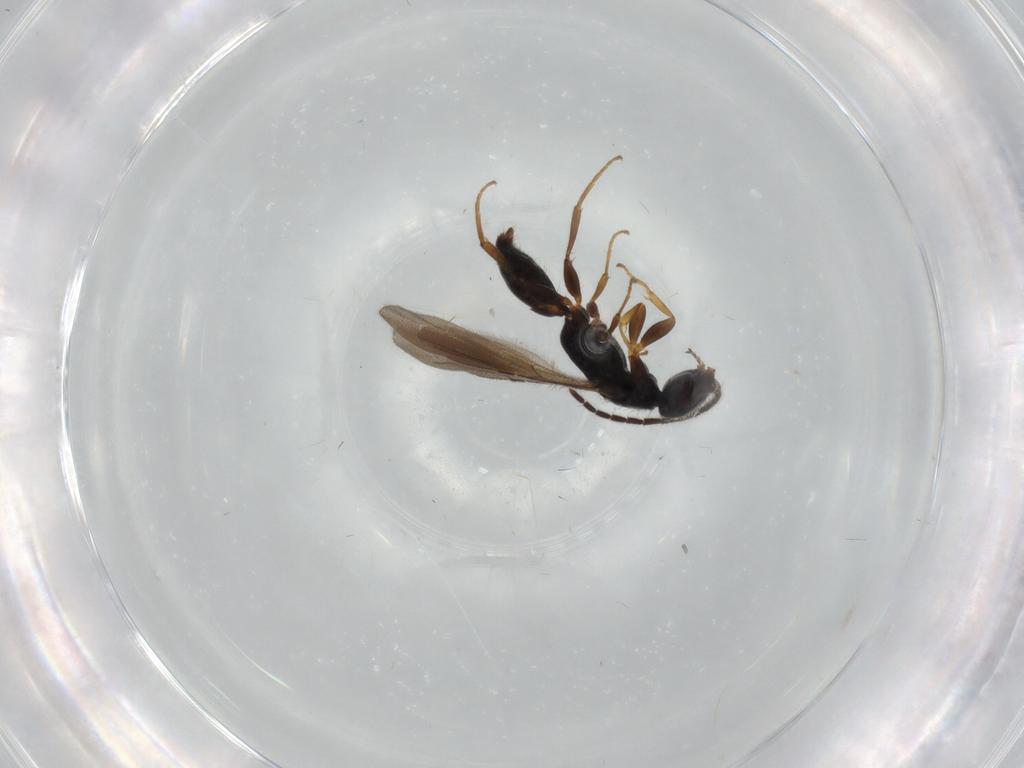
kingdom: Animalia
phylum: Arthropoda
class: Insecta
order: Hymenoptera
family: Bethylidae
